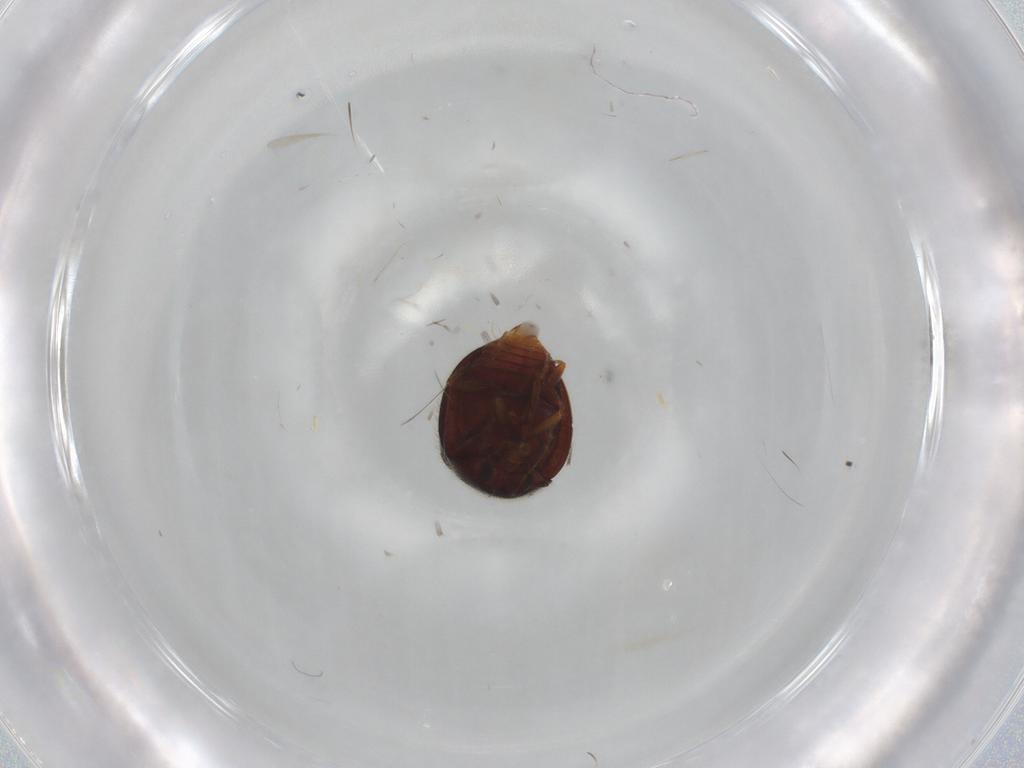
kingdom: Animalia
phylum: Arthropoda
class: Insecta
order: Coleoptera
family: Anamorphidae
